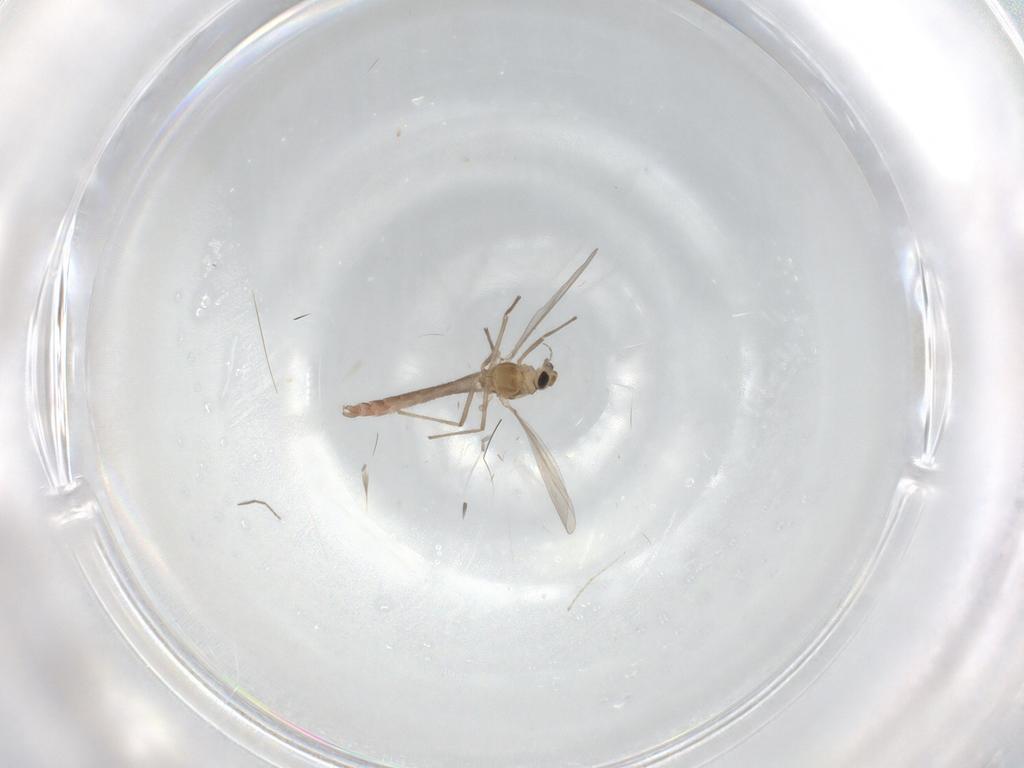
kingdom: Animalia
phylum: Arthropoda
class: Insecta
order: Diptera
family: Chironomidae
